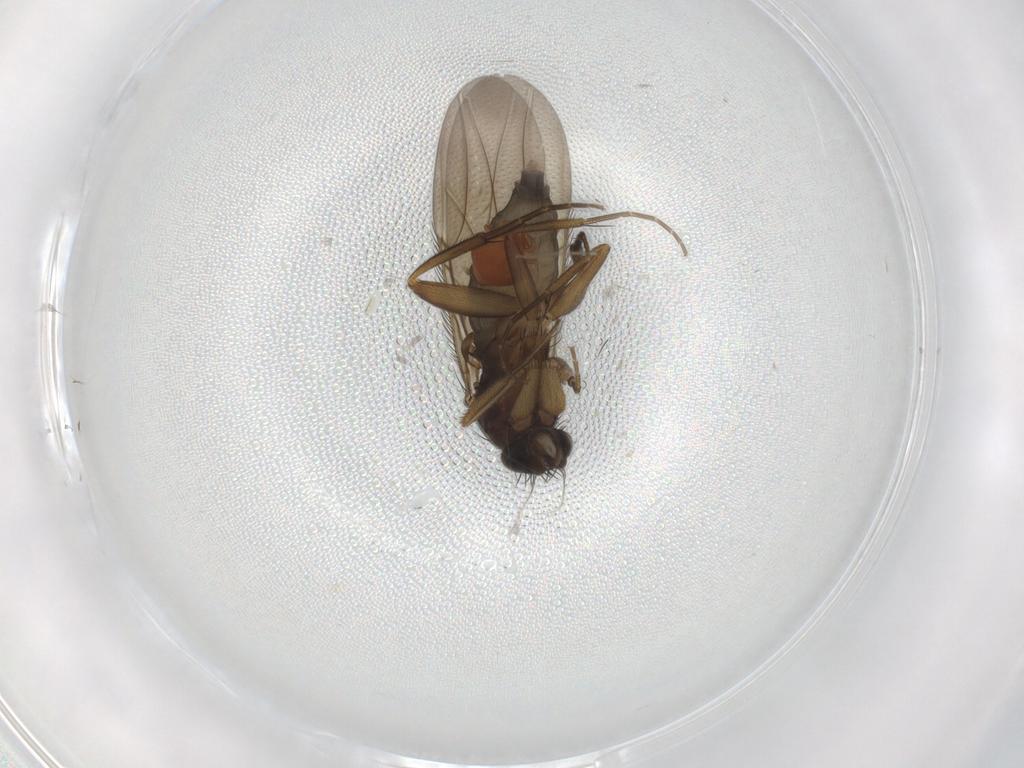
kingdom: Animalia
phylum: Arthropoda
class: Insecta
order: Diptera
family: Phoridae
